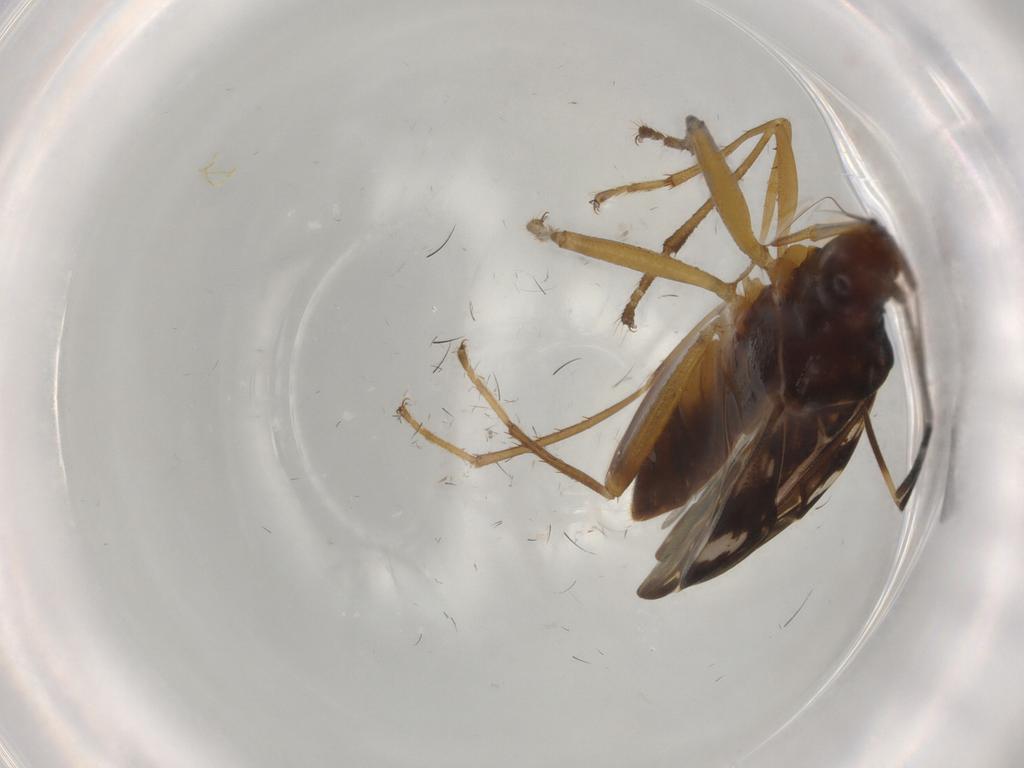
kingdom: Animalia
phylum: Arthropoda
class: Insecta
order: Hemiptera
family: Rhyparochromidae
